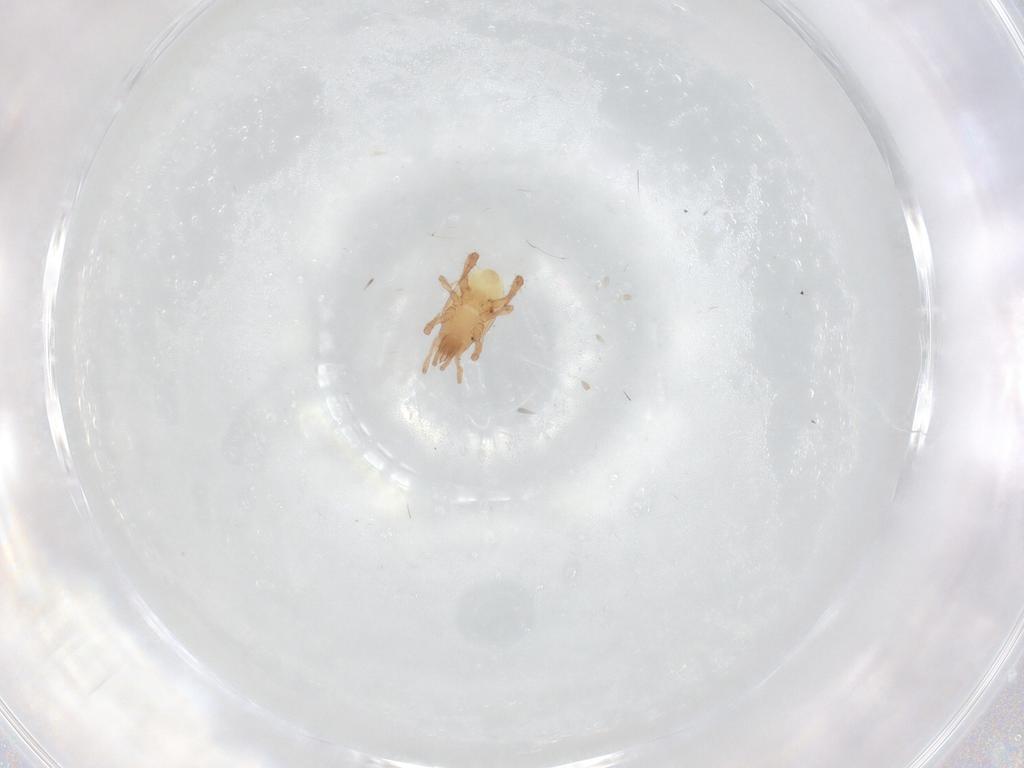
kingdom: Animalia
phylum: Arthropoda
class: Arachnida
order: Mesostigmata
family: Arctacaridae
